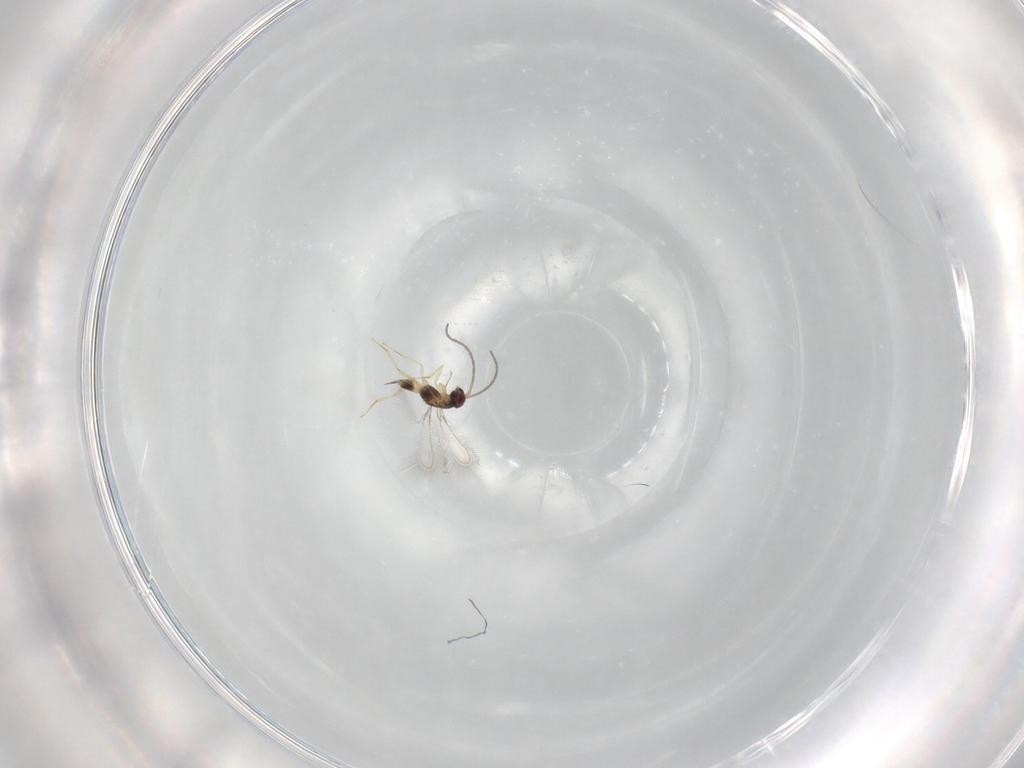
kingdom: Animalia
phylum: Arthropoda
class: Insecta
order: Hymenoptera
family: Mymaridae
